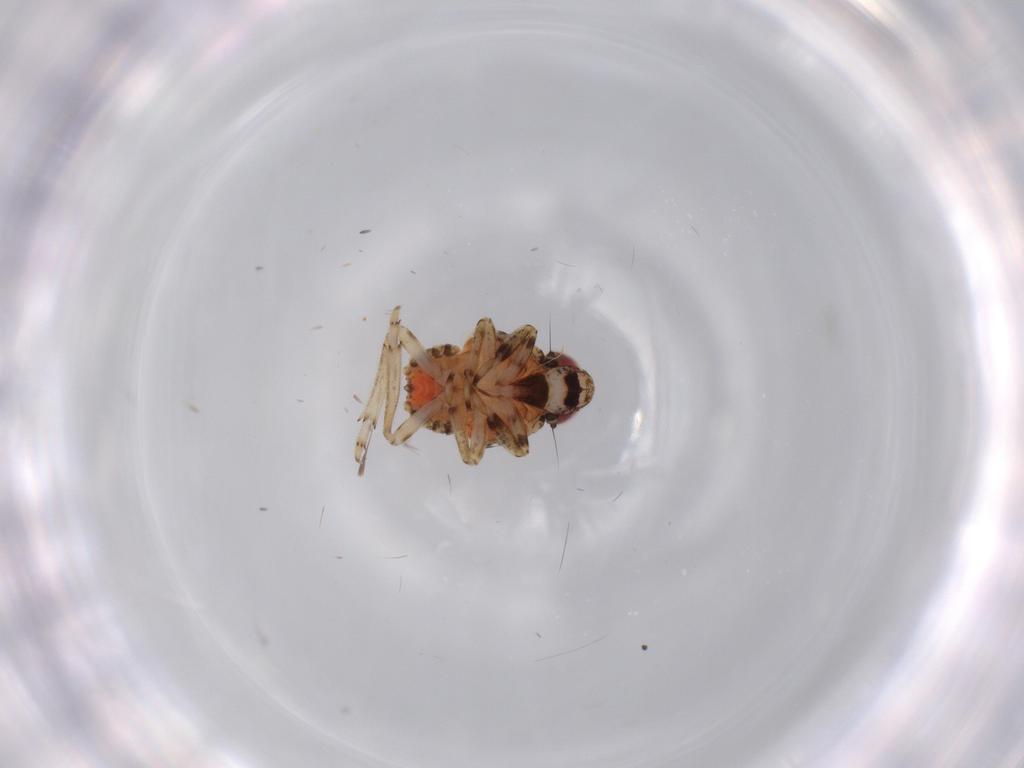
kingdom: Animalia
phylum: Arthropoda
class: Insecta
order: Hemiptera
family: Issidae
